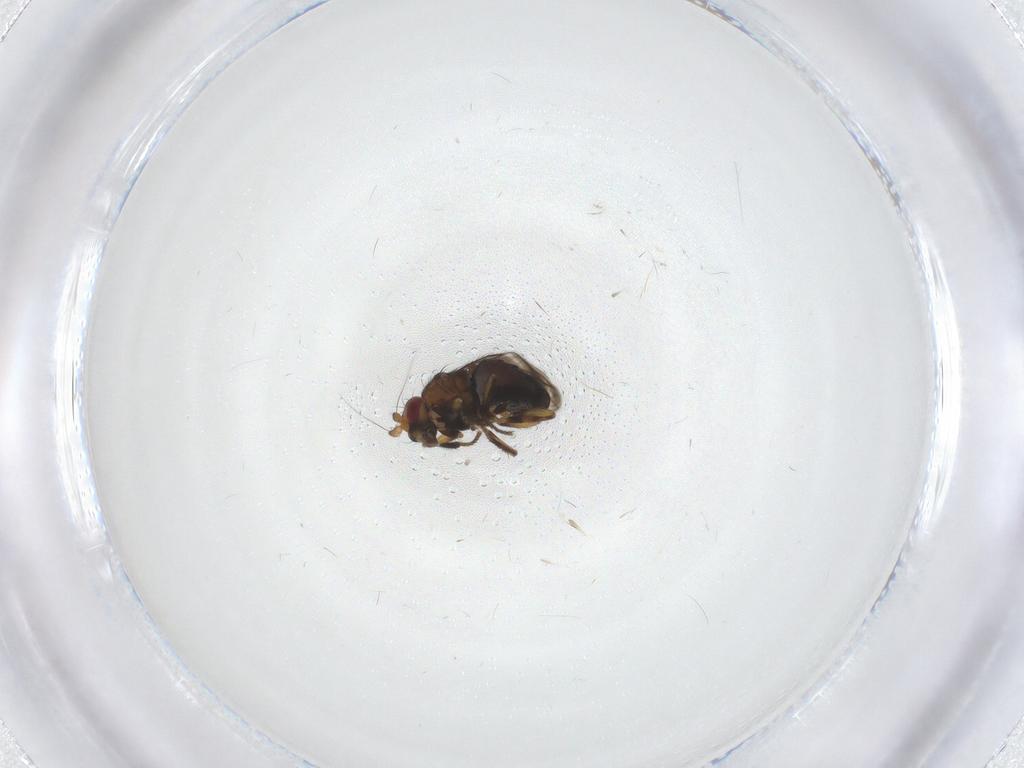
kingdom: Animalia
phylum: Arthropoda
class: Insecta
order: Diptera
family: Sphaeroceridae
